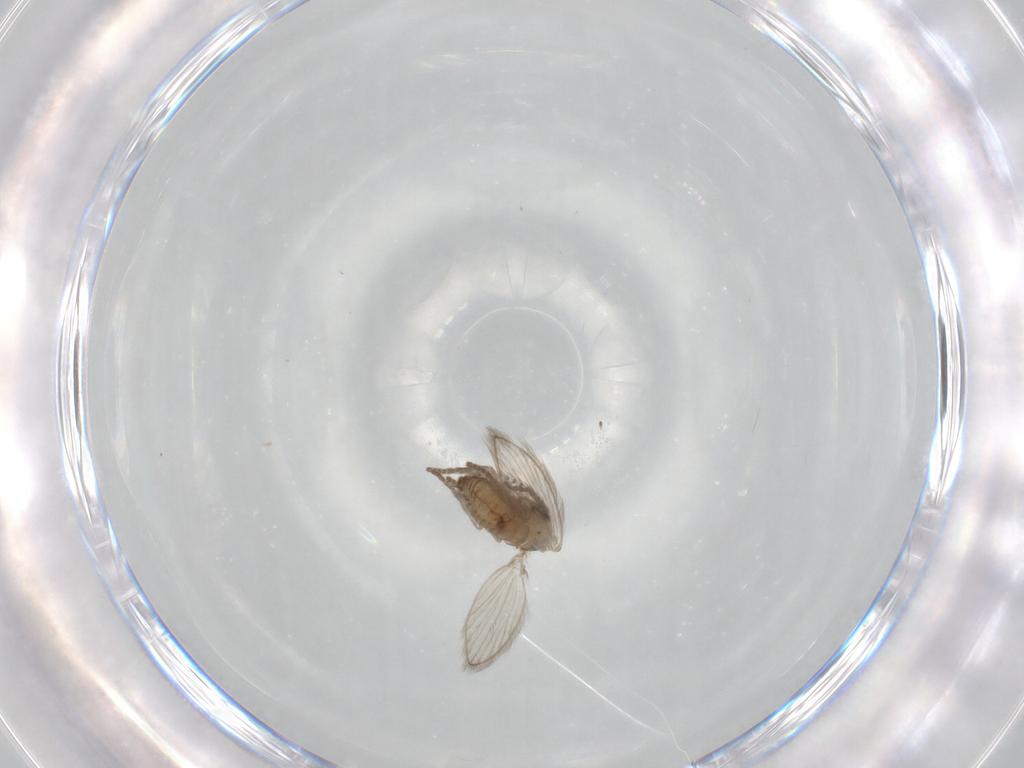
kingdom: Animalia
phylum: Arthropoda
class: Insecta
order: Diptera
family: Psychodidae
